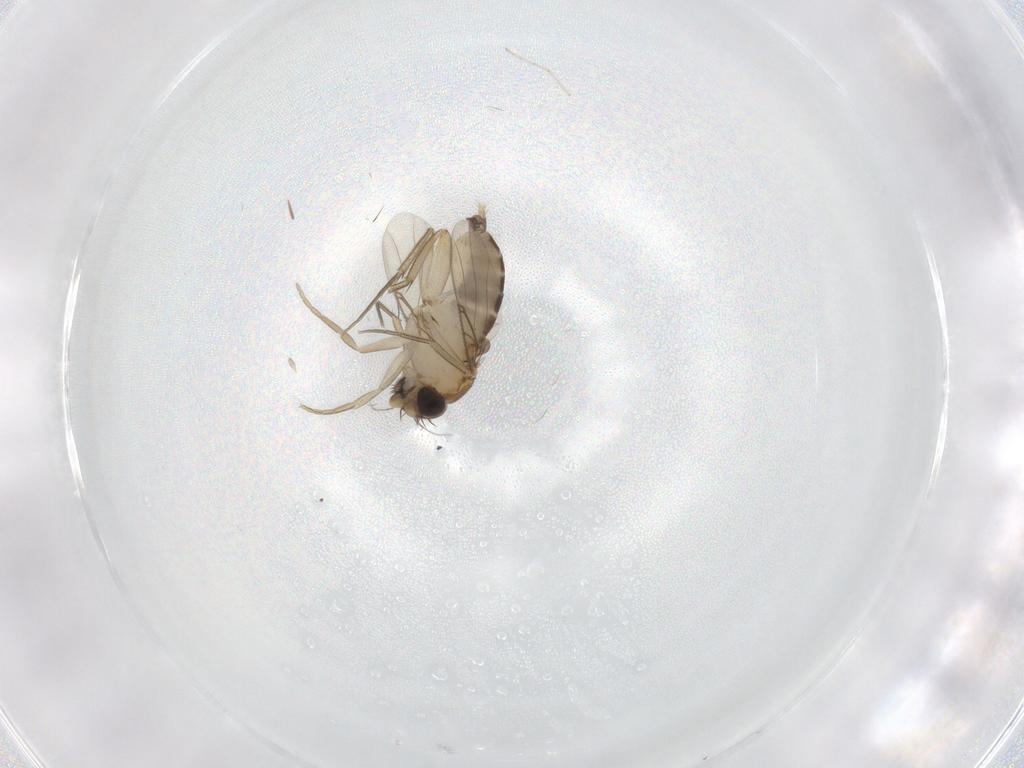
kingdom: Animalia
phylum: Arthropoda
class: Insecta
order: Diptera
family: Phoridae
